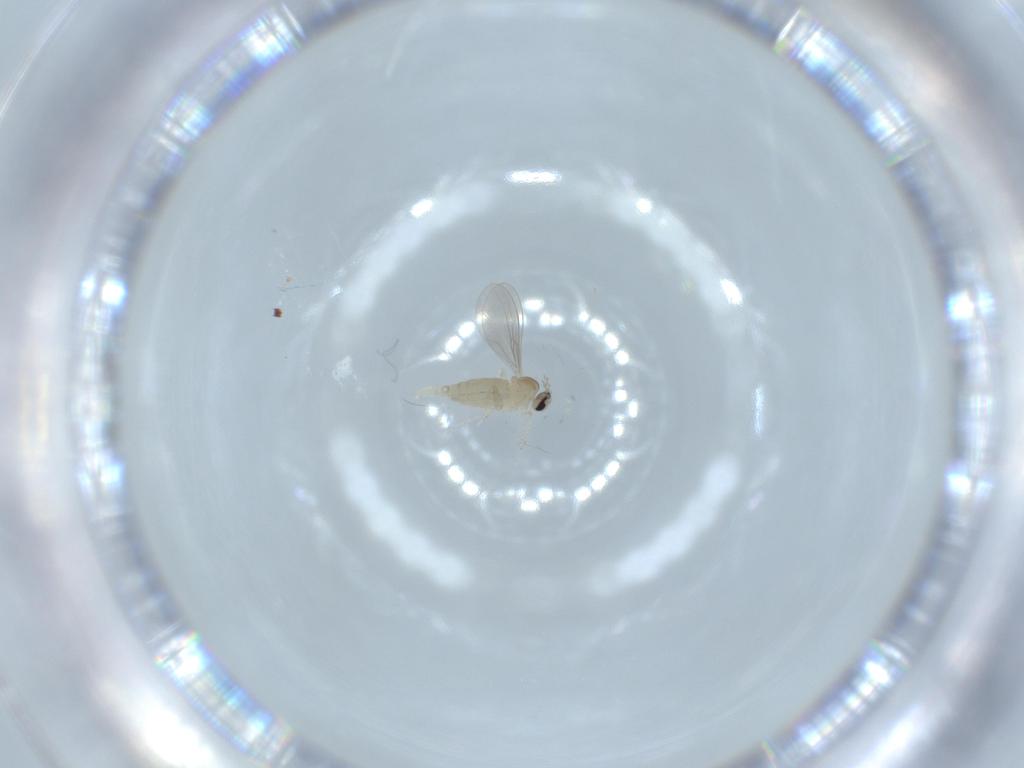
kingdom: Animalia
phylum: Arthropoda
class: Insecta
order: Diptera
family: Cecidomyiidae
